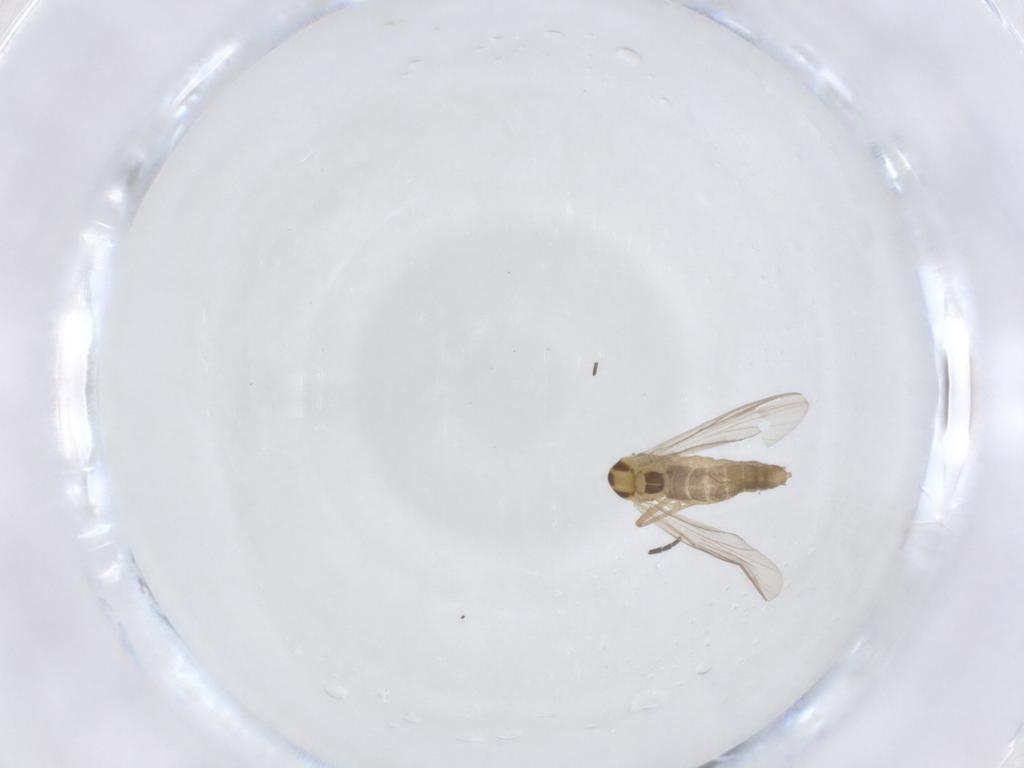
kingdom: Animalia
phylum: Arthropoda
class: Insecta
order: Diptera
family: Chironomidae
